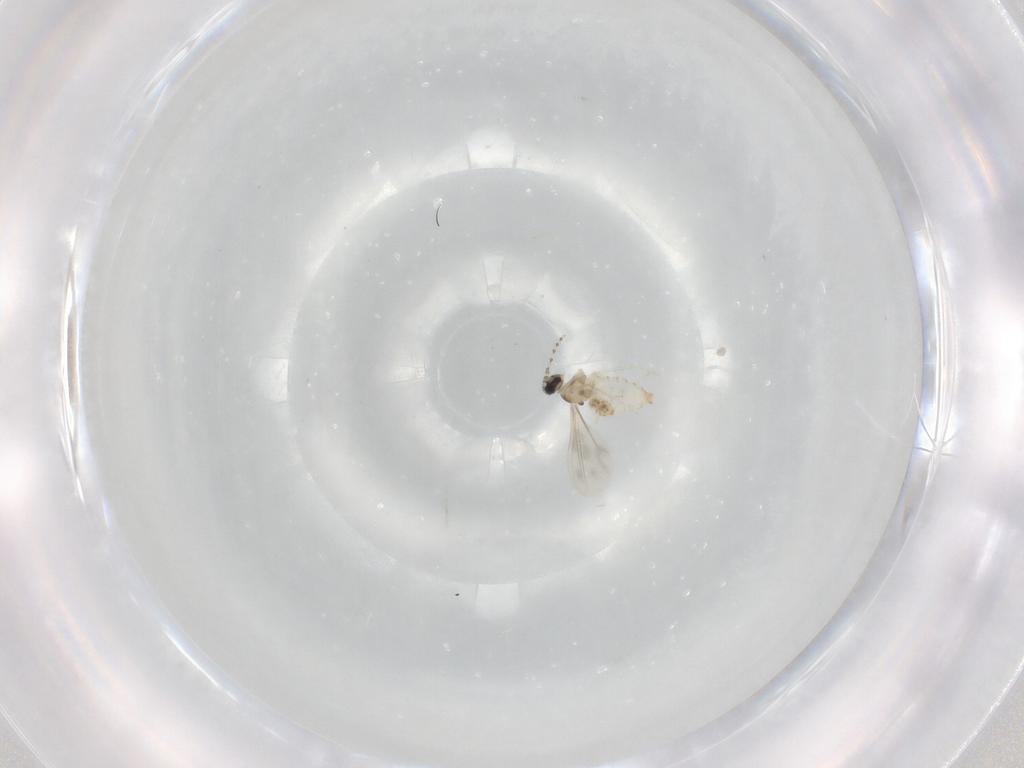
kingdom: Animalia
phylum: Arthropoda
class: Insecta
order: Diptera
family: Cecidomyiidae
